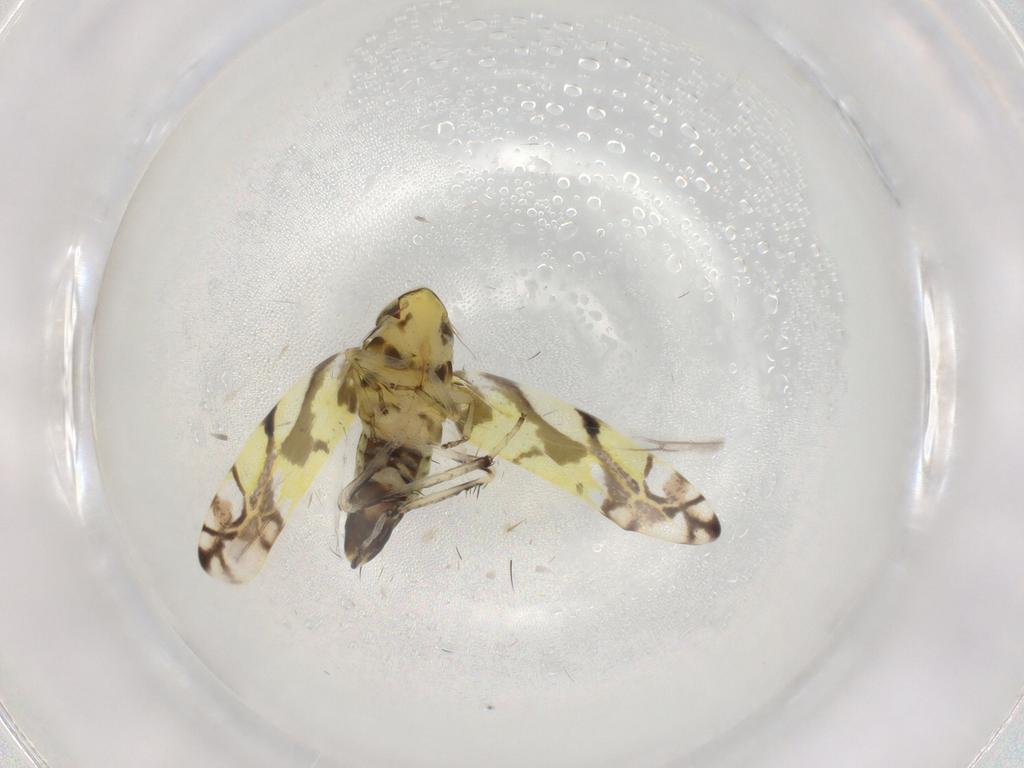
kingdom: Animalia
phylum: Arthropoda
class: Insecta
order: Hemiptera
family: Cicadellidae
